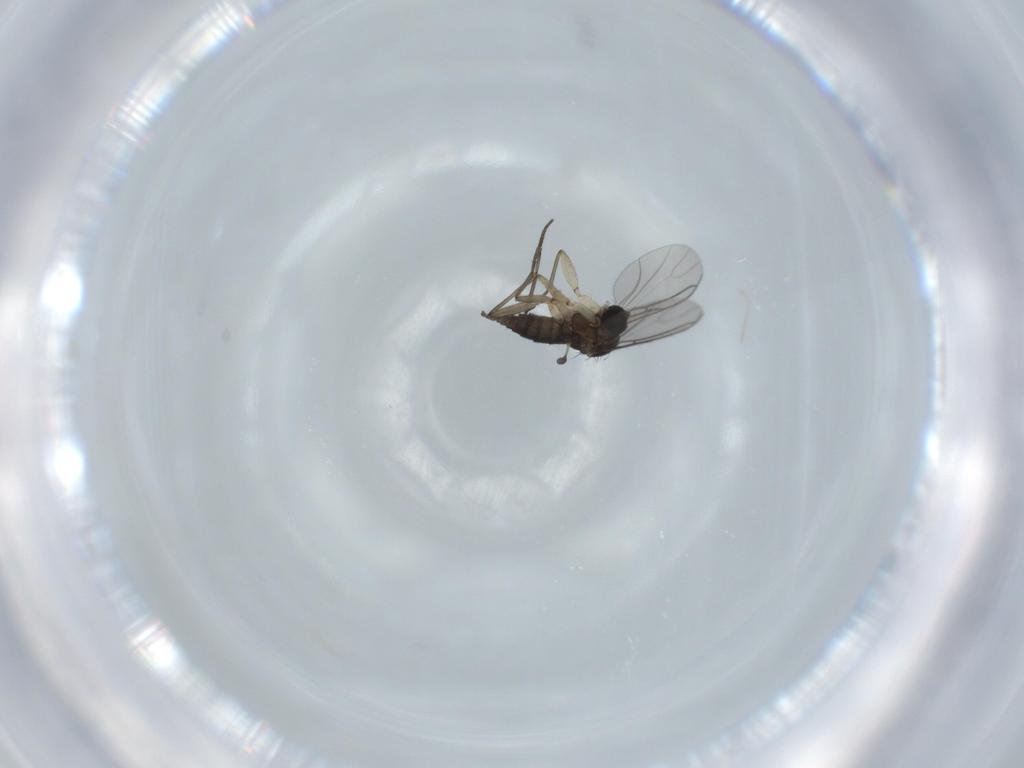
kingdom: Animalia
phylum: Arthropoda
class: Insecta
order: Diptera
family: Sciaridae
